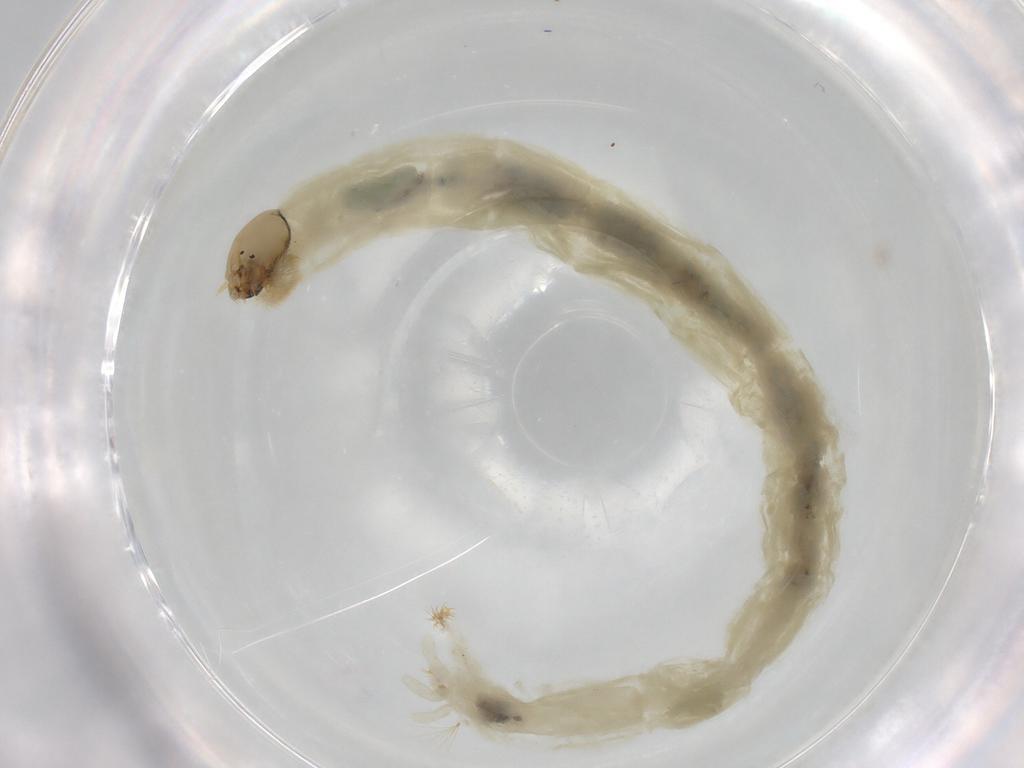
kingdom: Animalia
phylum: Arthropoda
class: Insecta
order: Diptera
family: Chironomidae
